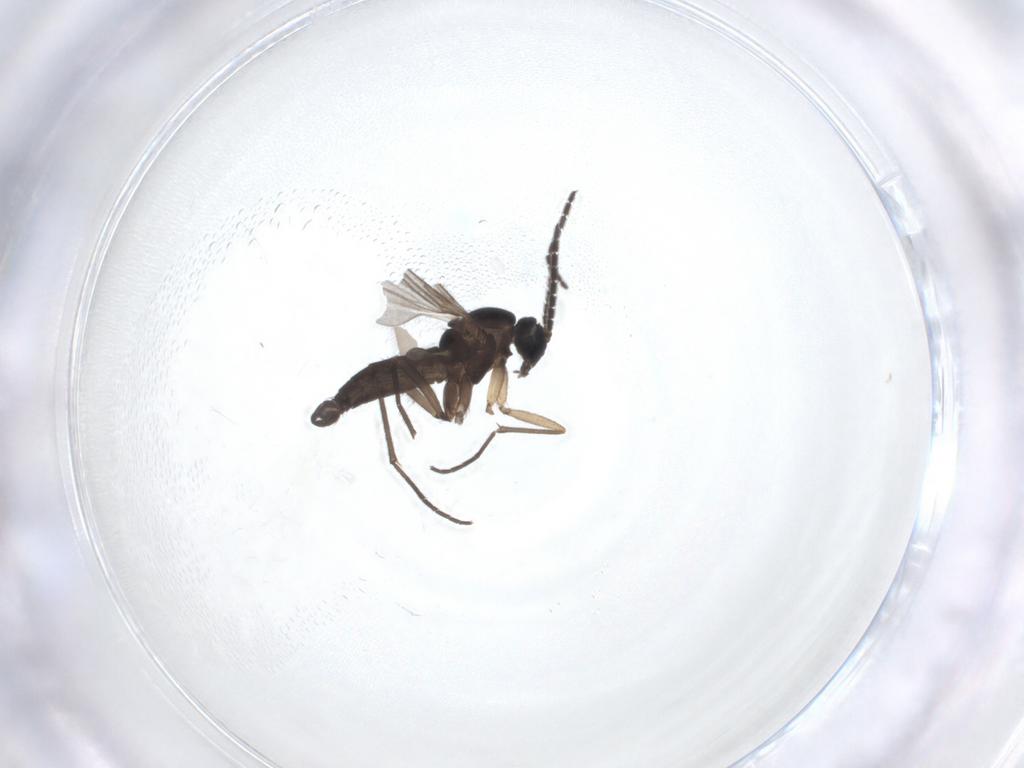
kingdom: Animalia
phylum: Arthropoda
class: Insecta
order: Diptera
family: Sciaridae
